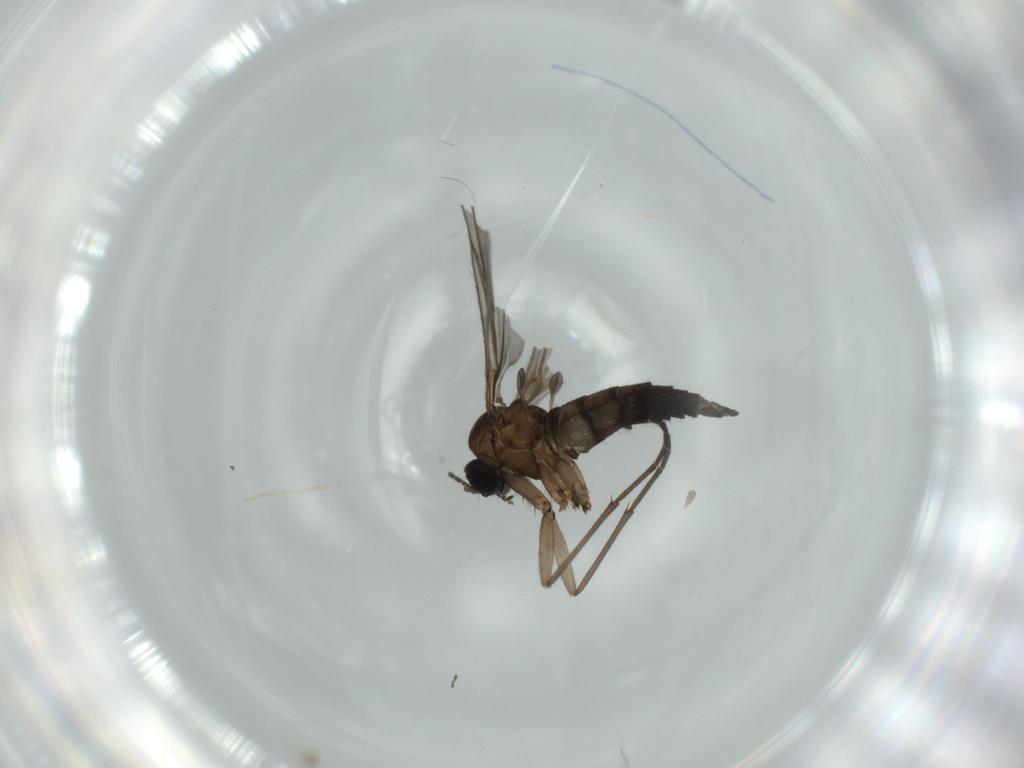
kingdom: Animalia
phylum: Arthropoda
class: Insecta
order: Diptera
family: Sciaridae
